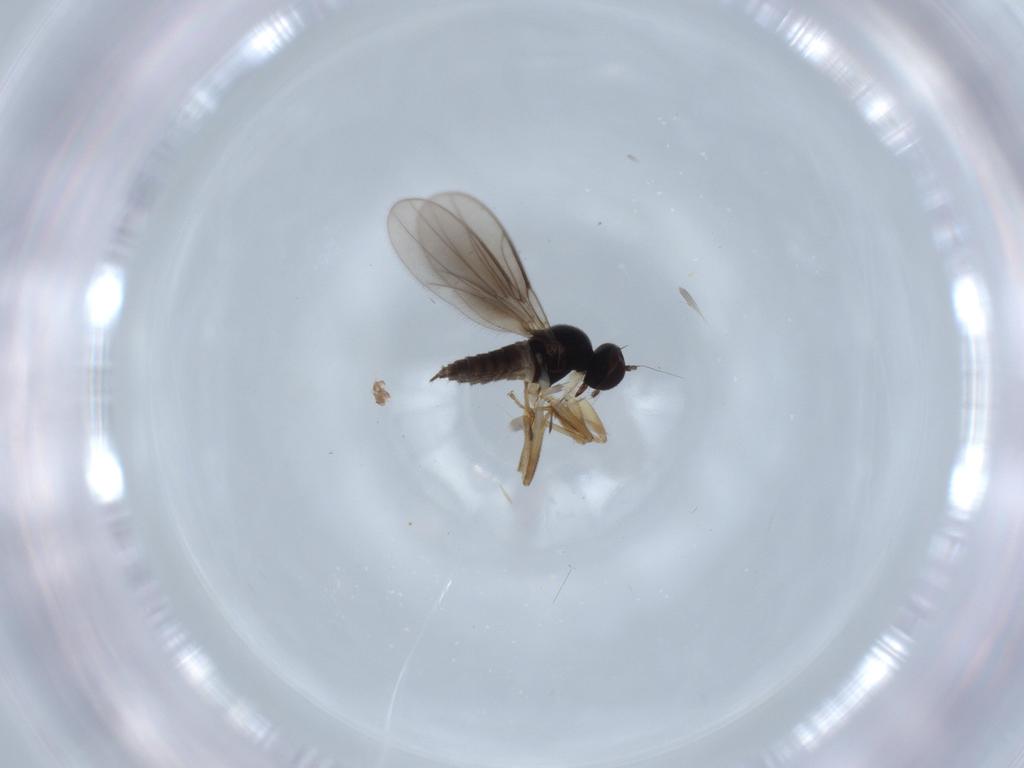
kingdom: Animalia
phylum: Arthropoda
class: Insecta
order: Diptera
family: Hybotidae
